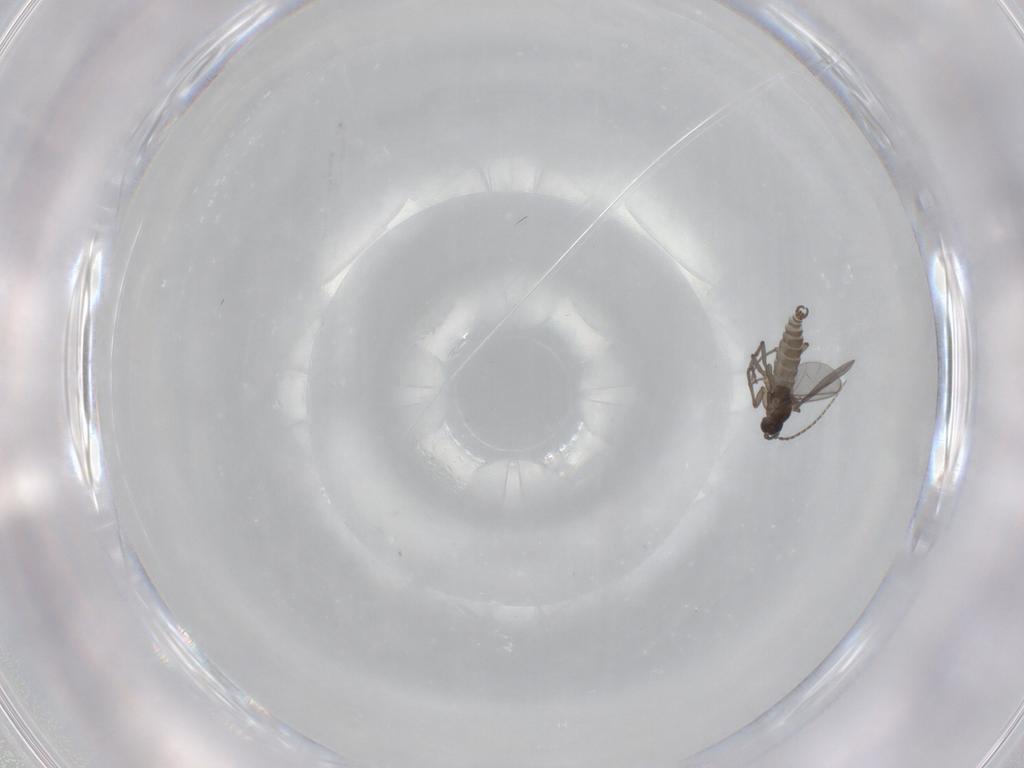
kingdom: Animalia
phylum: Arthropoda
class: Insecta
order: Diptera
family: Sciaridae
